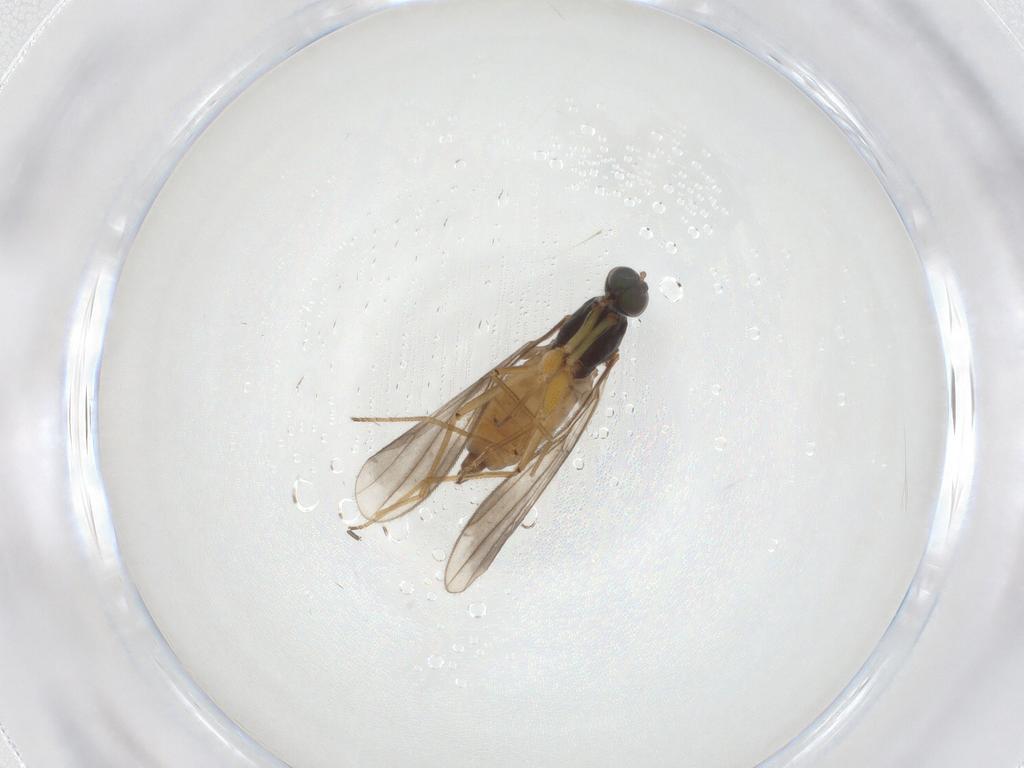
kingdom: Animalia
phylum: Arthropoda
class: Insecta
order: Diptera
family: Empididae
